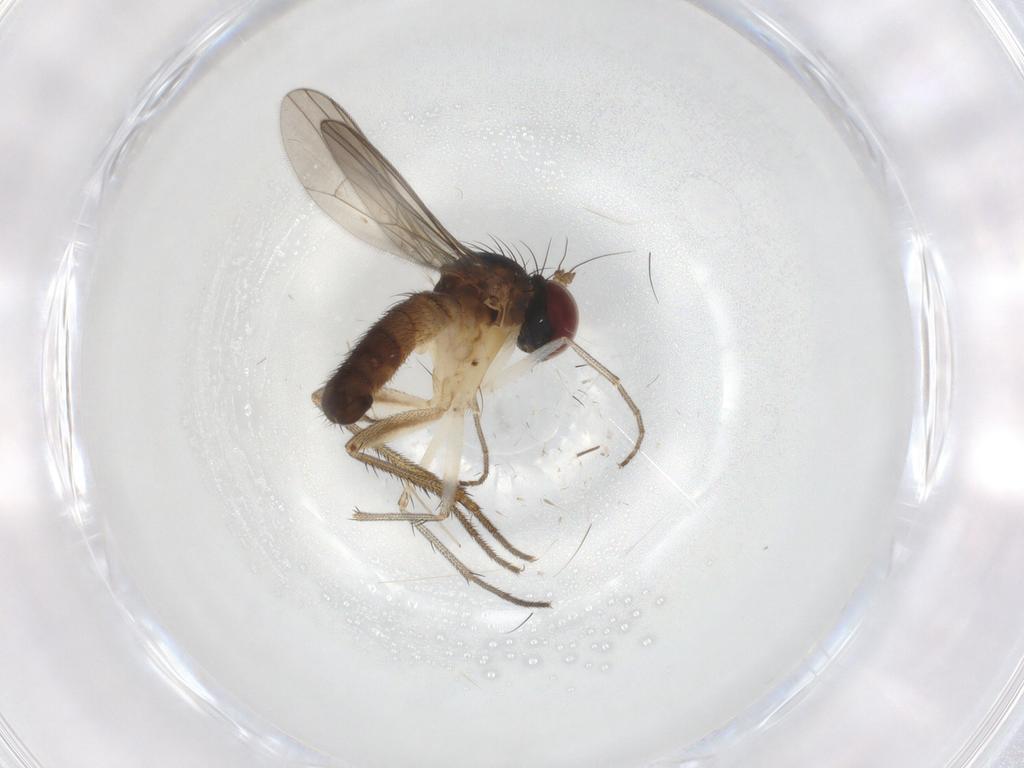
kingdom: Animalia
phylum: Arthropoda
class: Insecta
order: Diptera
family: Dolichopodidae
